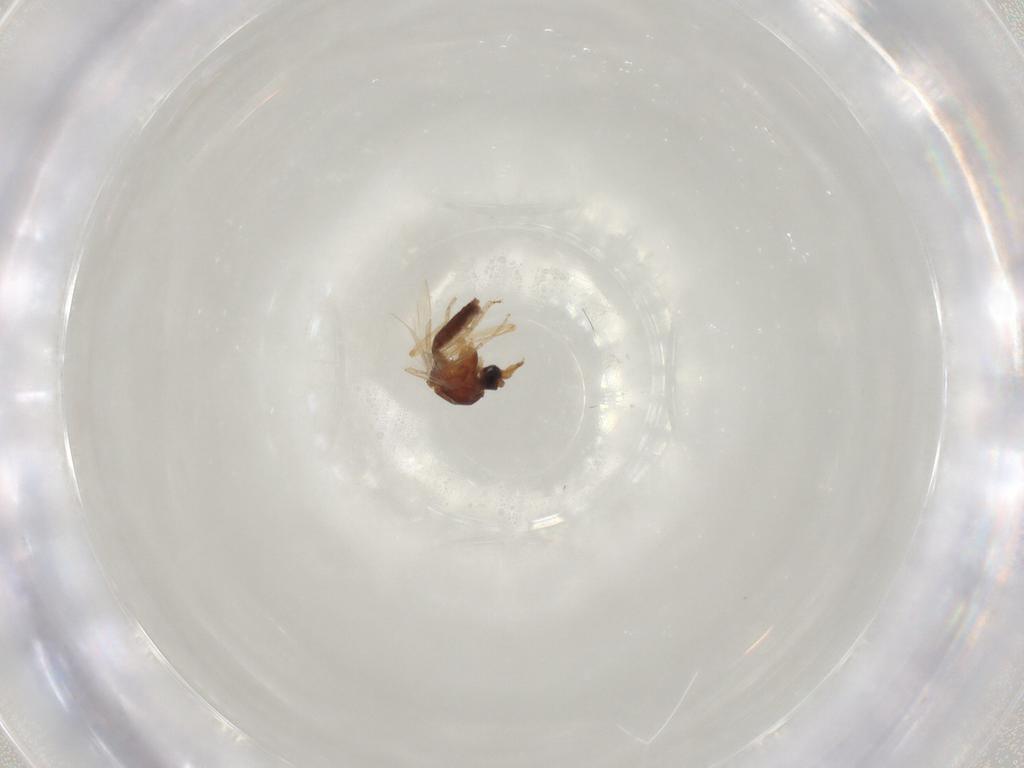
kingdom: Animalia
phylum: Arthropoda
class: Insecta
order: Diptera
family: Ceratopogonidae
